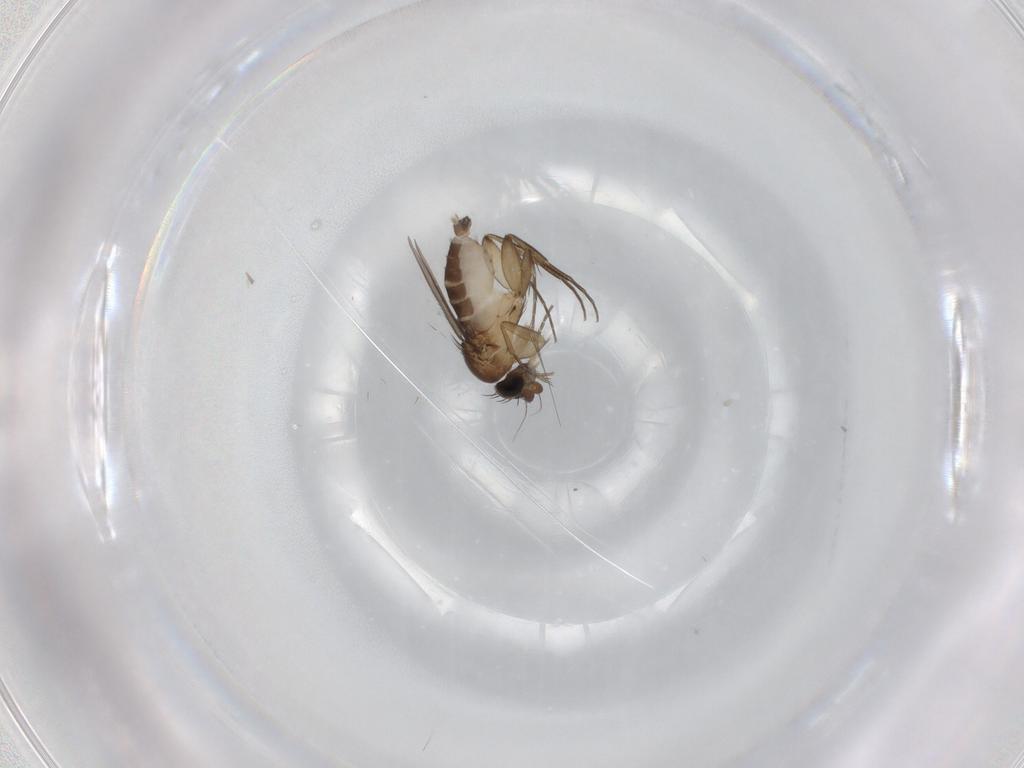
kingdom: Animalia
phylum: Arthropoda
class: Insecta
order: Diptera
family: Phoridae
